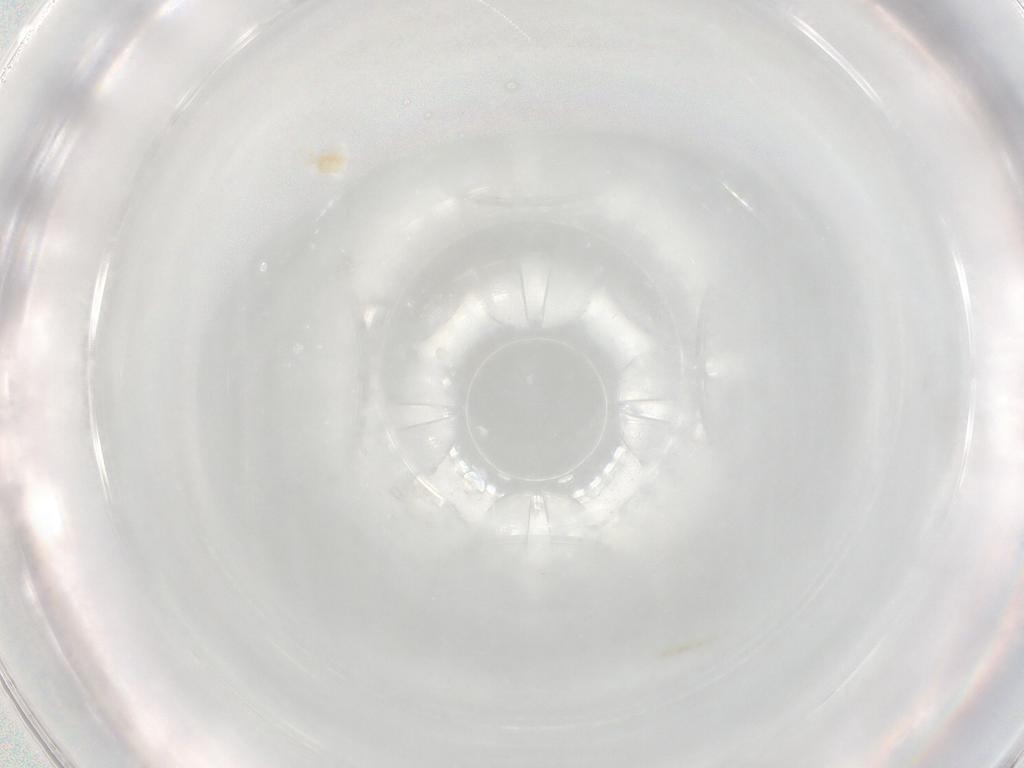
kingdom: Animalia
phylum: Arthropoda
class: Arachnida
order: Trombidiformes
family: Eupodidae
